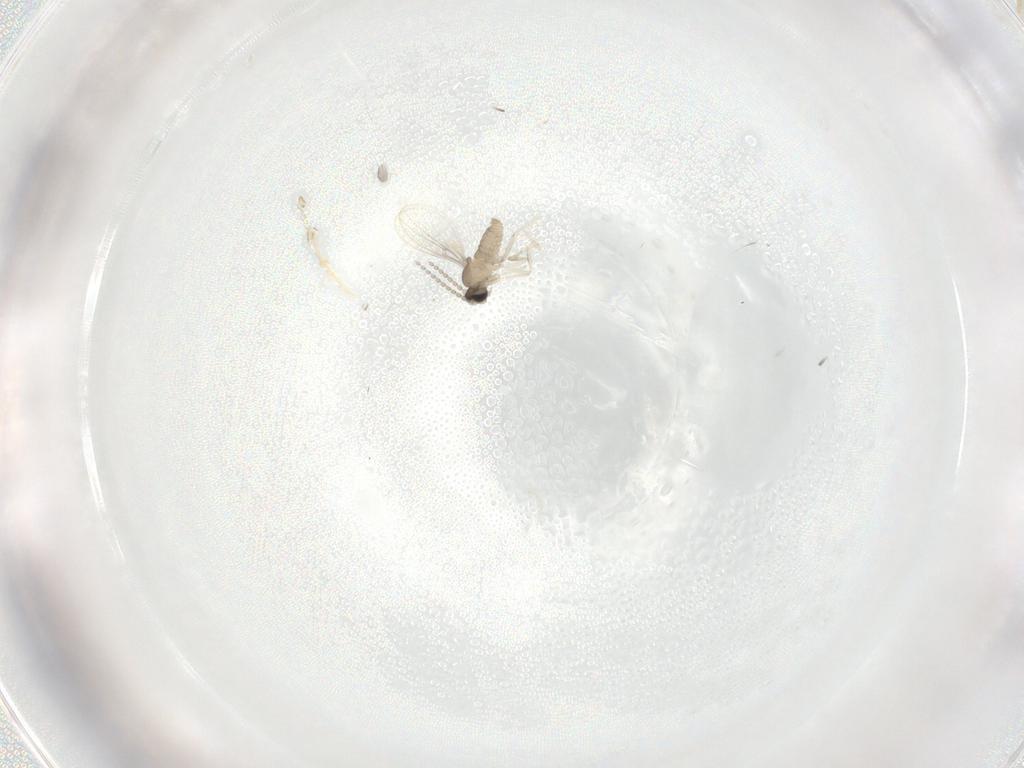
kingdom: Animalia
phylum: Arthropoda
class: Insecta
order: Diptera
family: Cecidomyiidae
